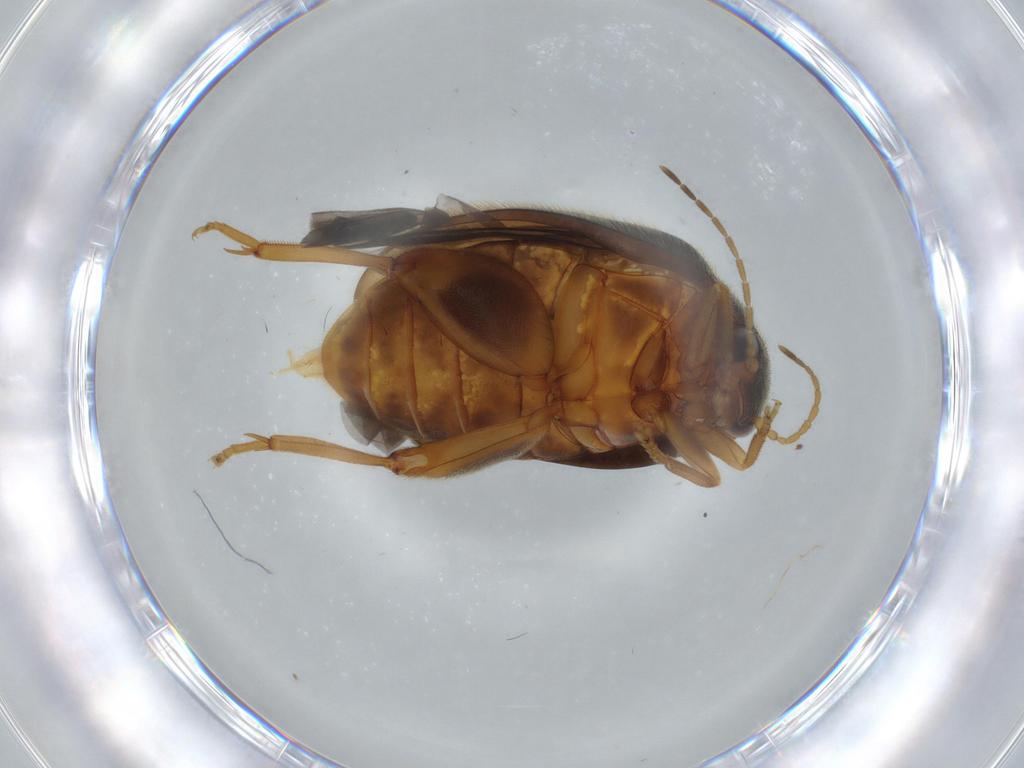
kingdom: Animalia
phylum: Arthropoda
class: Insecta
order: Coleoptera
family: Scirtidae
